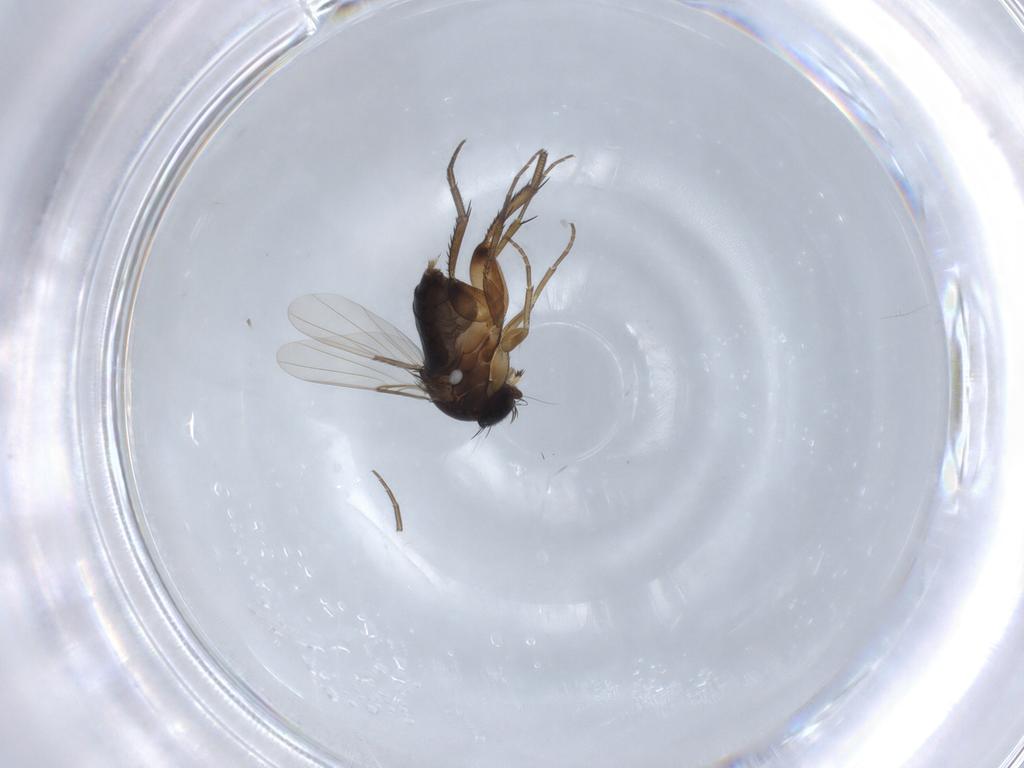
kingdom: Animalia
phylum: Arthropoda
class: Insecta
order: Diptera
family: Phoridae
